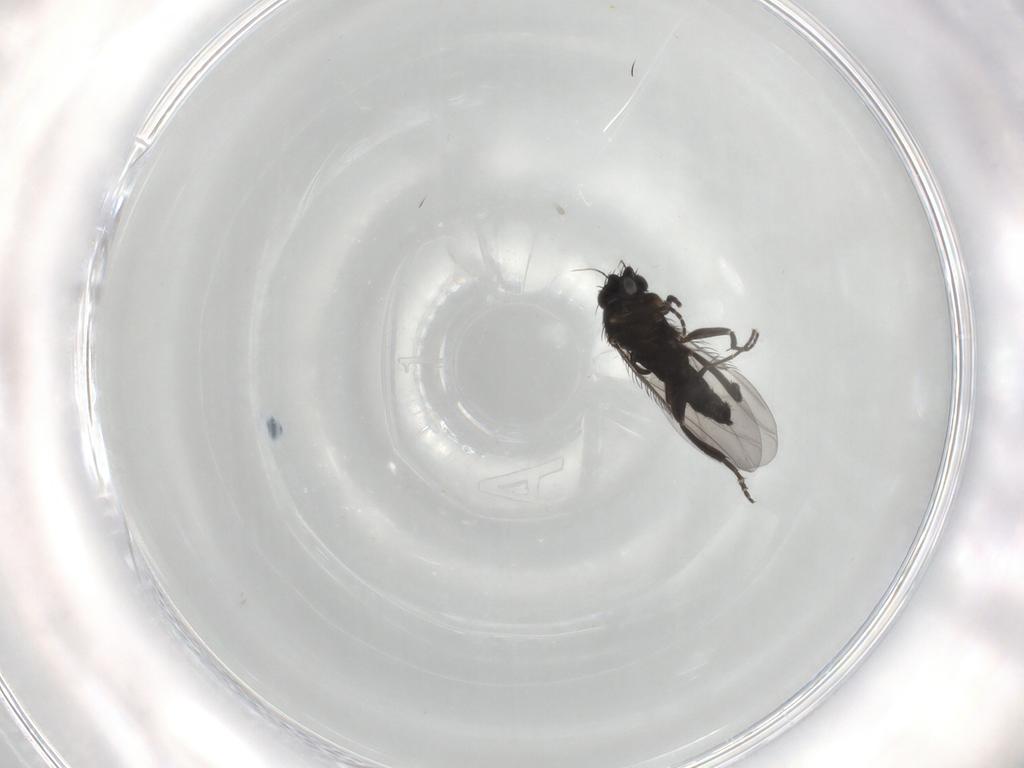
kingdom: Animalia
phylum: Arthropoda
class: Insecta
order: Diptera
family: Phoridae
